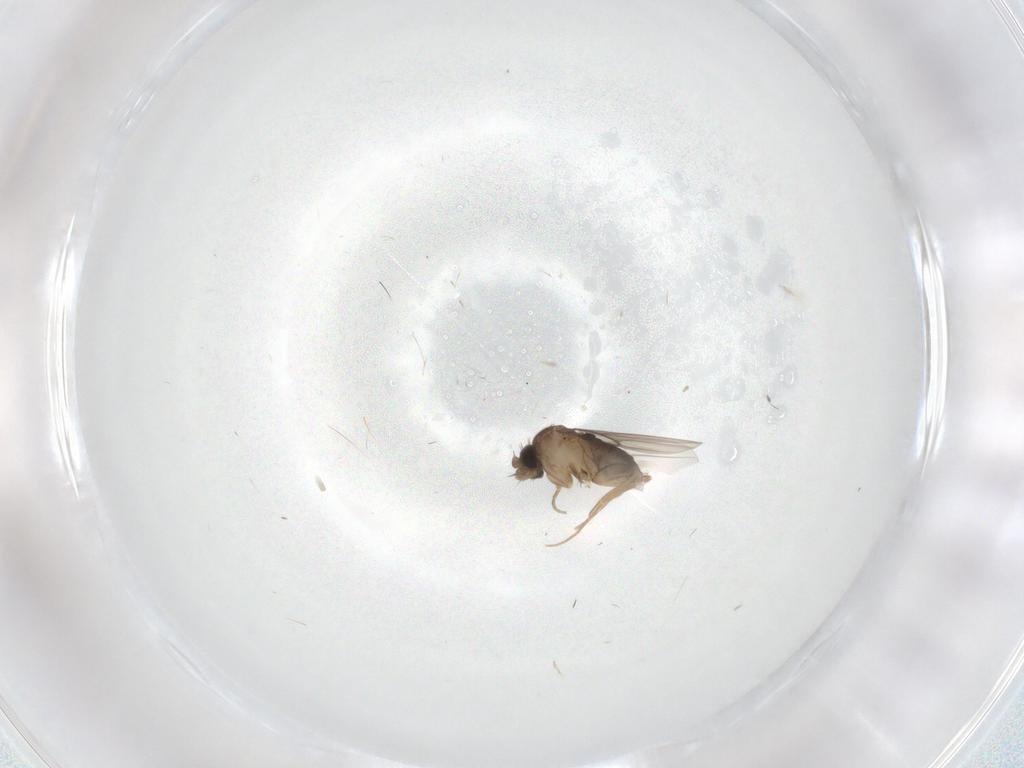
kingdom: Animalia
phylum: Arthropoda
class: Insecta
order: Diptera
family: Phoridae
